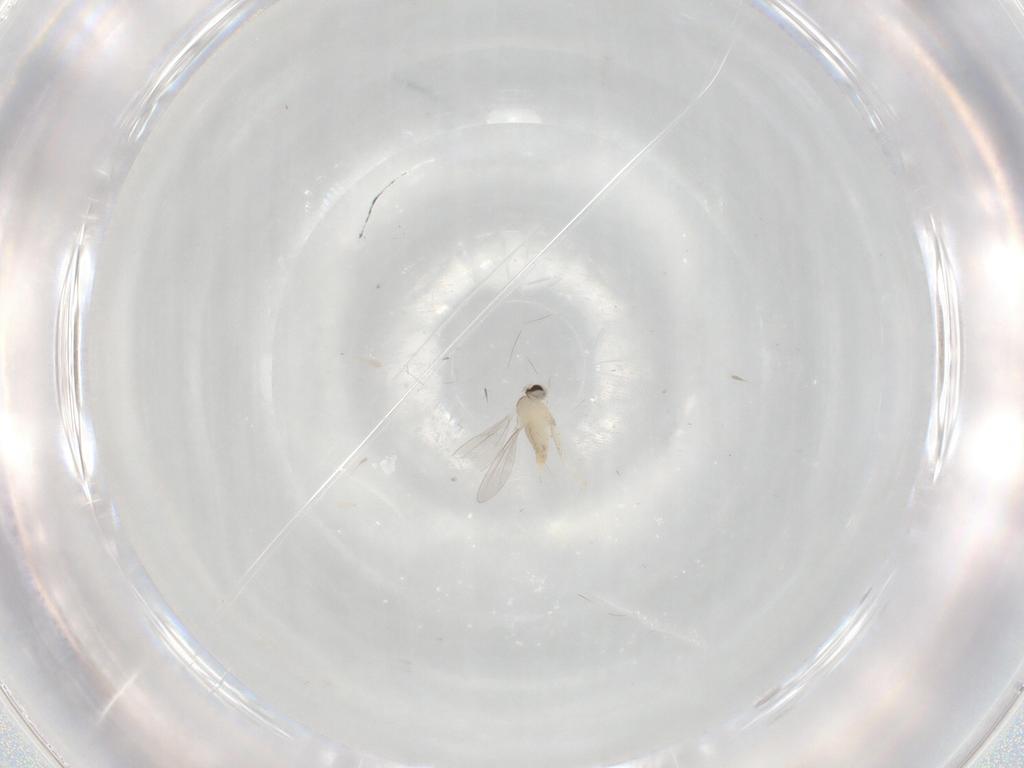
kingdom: Animalia
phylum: Arthropoda
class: Insecta
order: Diptera
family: Cecidomyiidae
